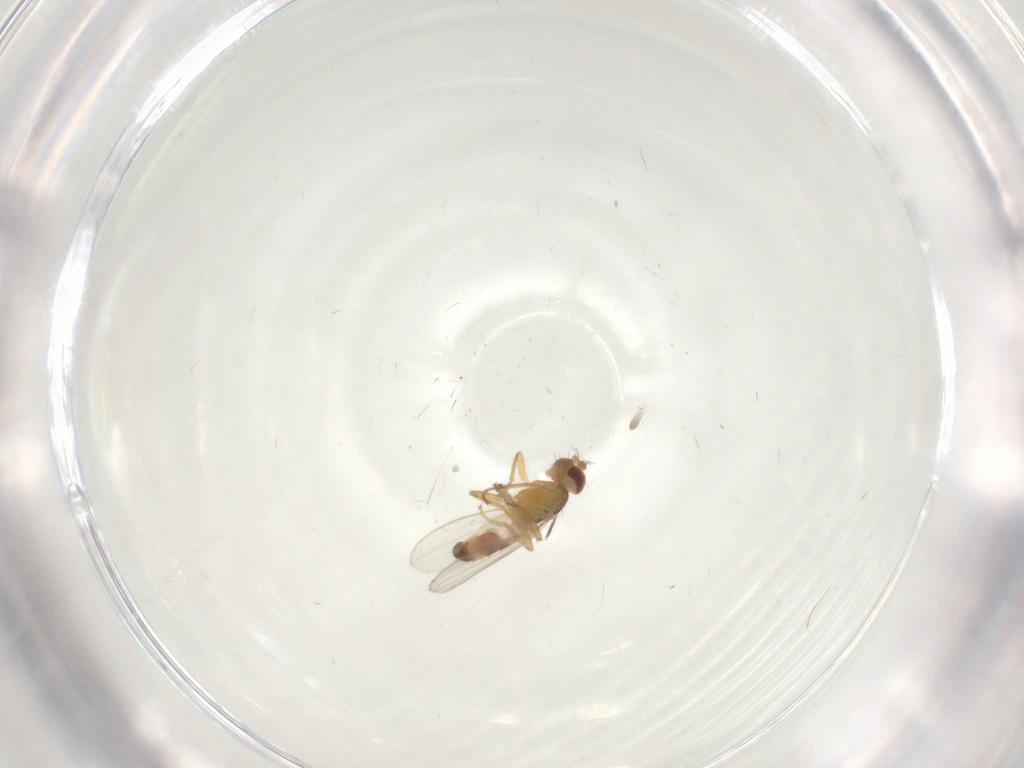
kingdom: Animalia
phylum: Arthropoda
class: Insecta
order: Diptera
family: Periscelididae
